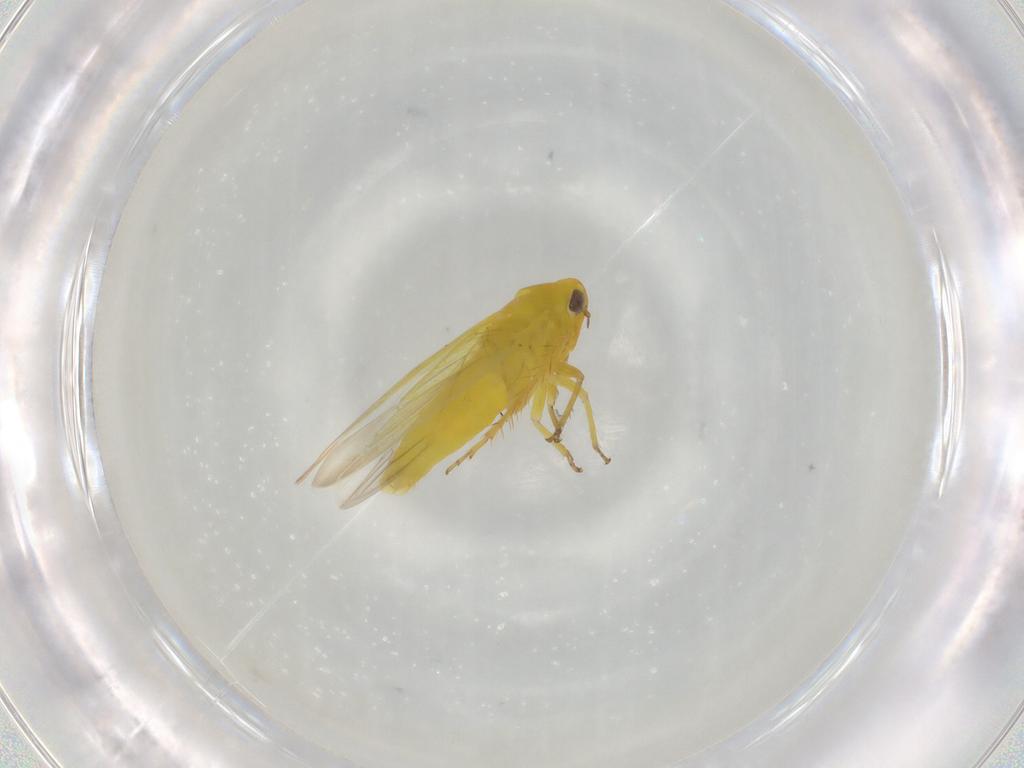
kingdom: Animalia
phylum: Arthropoda
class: Insecta
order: Hemiptera
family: Cicadellidae
